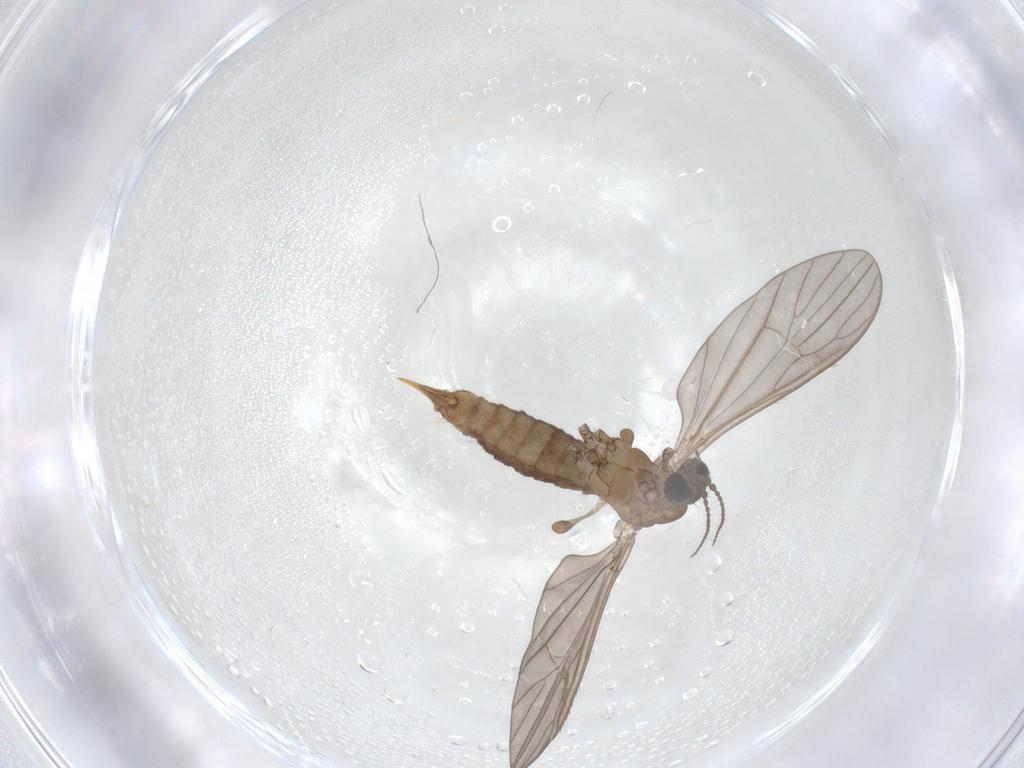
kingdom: Animalia
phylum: Arthropoda
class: Insecta
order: Diptera
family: Limoniidae
